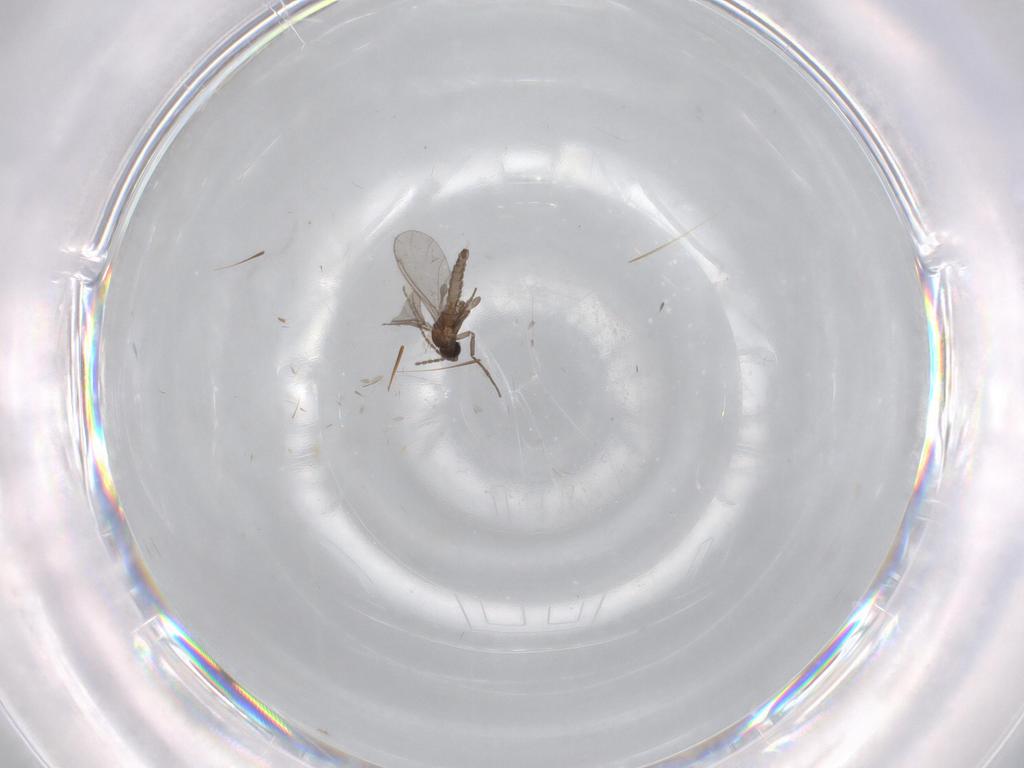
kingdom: Animalia
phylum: Arthropoda
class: Insecta
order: Diptera
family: Sciaridae
